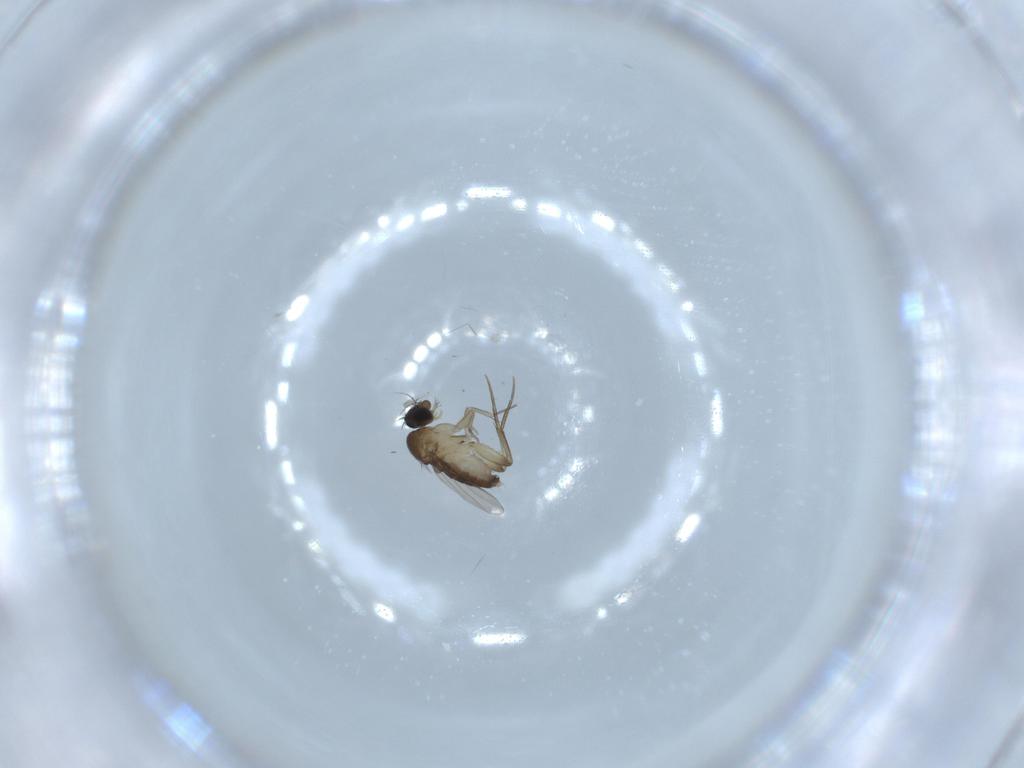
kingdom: Animalia
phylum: Arthropoda
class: Insecta
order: Diptera
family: Phoridae
